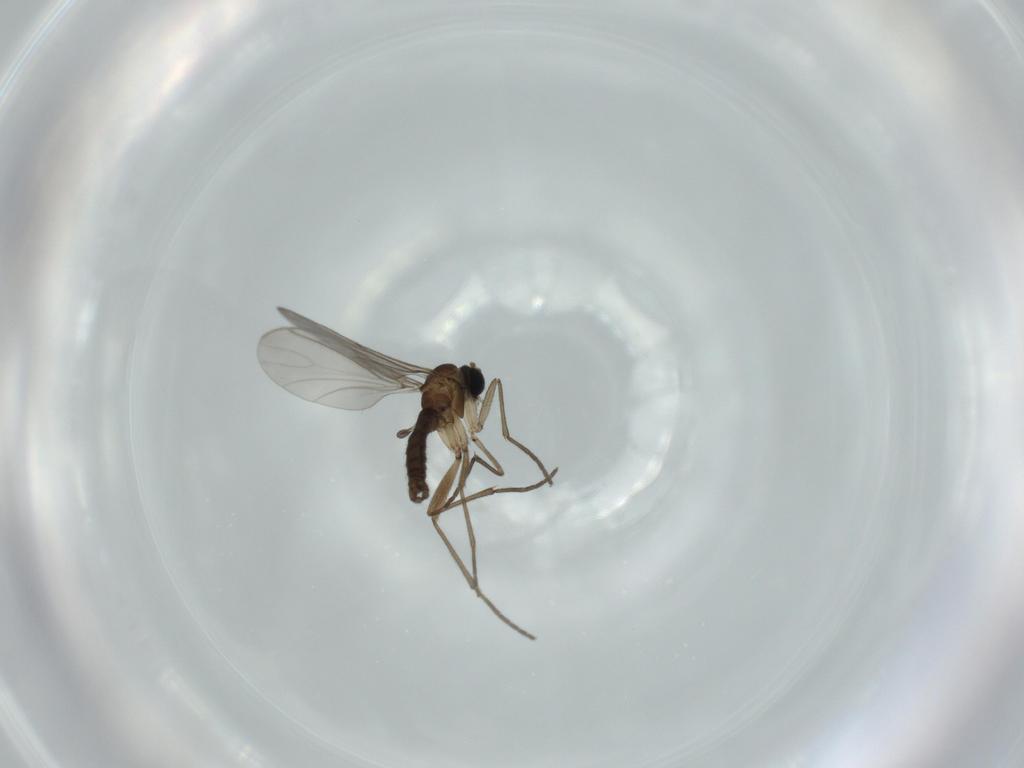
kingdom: Animalia
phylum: Arthropoda
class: Insecta
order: Diptera
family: Sciaridae
